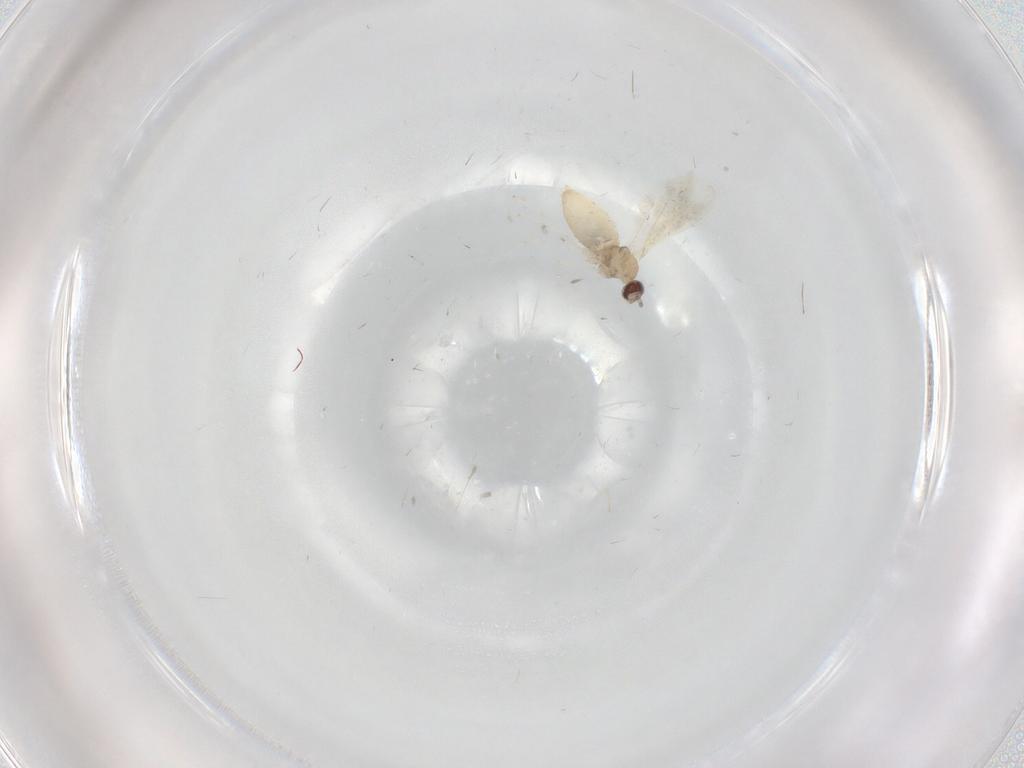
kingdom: Animalia
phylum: Arthropoda
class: Insecta
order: Diptera
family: Cecidomyiidae
